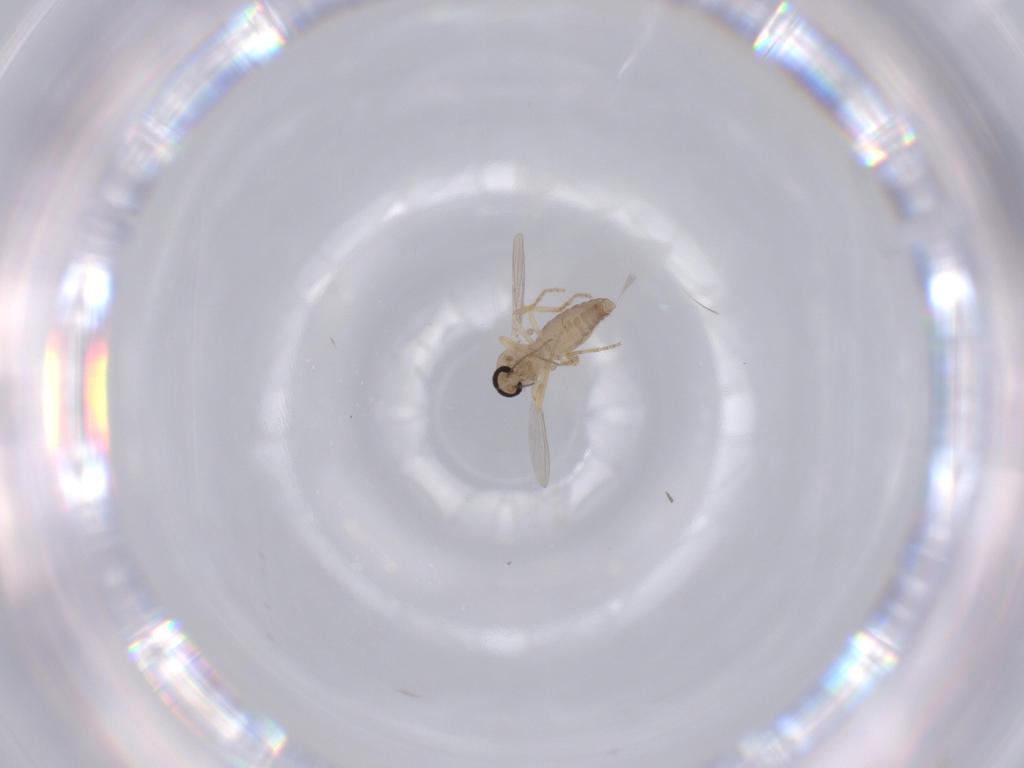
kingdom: Animalia
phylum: Arthropoda
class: Insecta
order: Diptera
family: Ceratopogonidae
